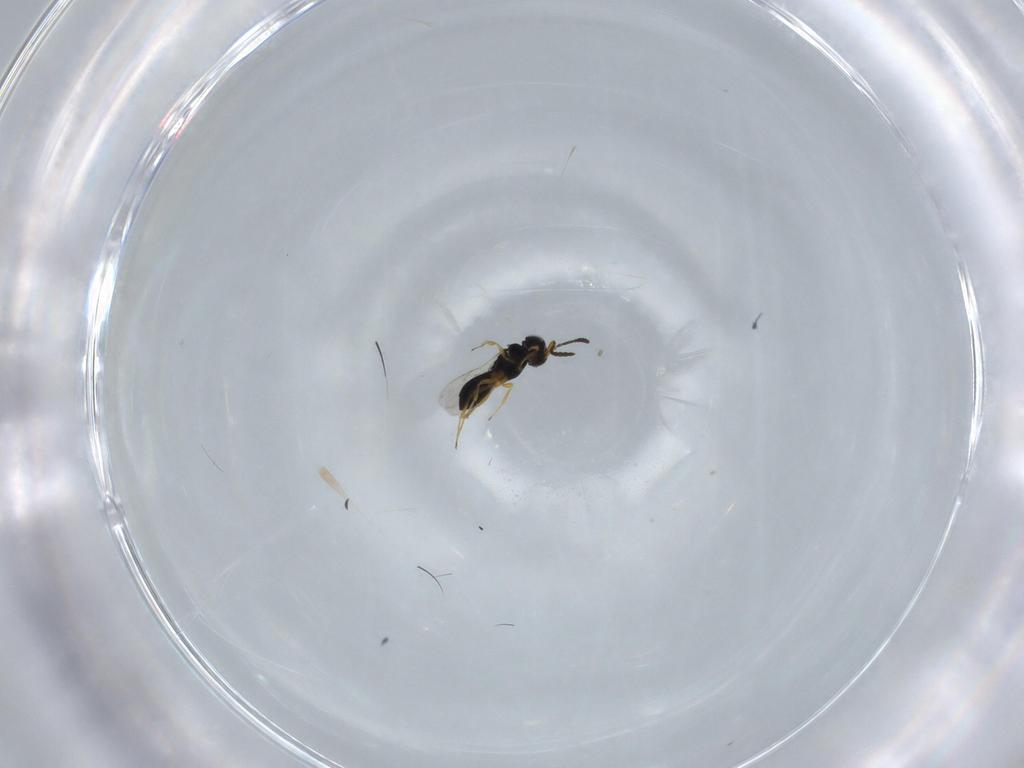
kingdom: Animalia
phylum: Arthropoda
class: Insecta
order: Hymenoptera
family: Scelionidae
